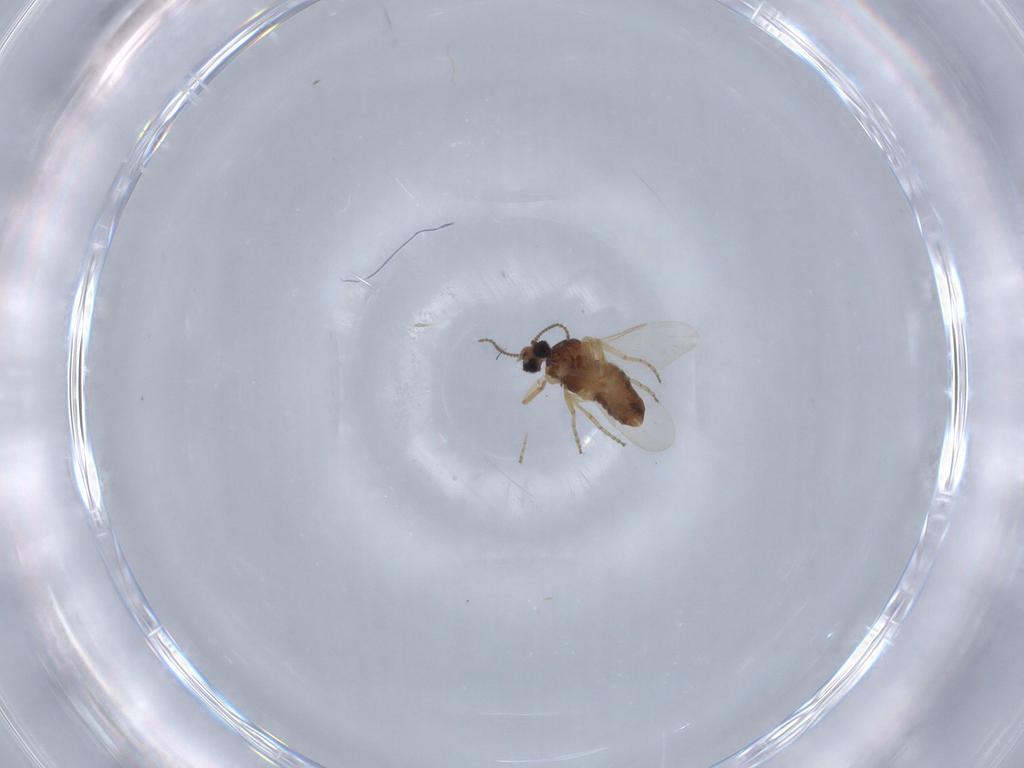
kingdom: Animalia
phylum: Arthropoda
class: Insecta
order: Diptera
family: Ceratopogonidae
